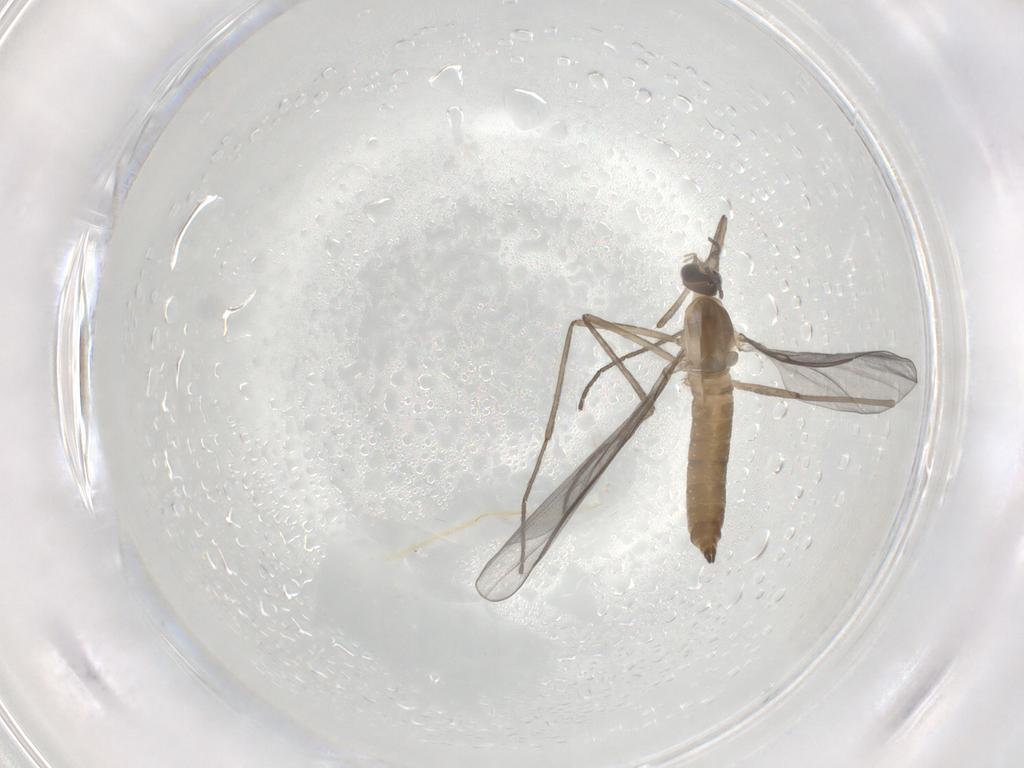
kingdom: Animalia
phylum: Arthropoda
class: Insecta
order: Diptera
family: Cecidomyiidae
